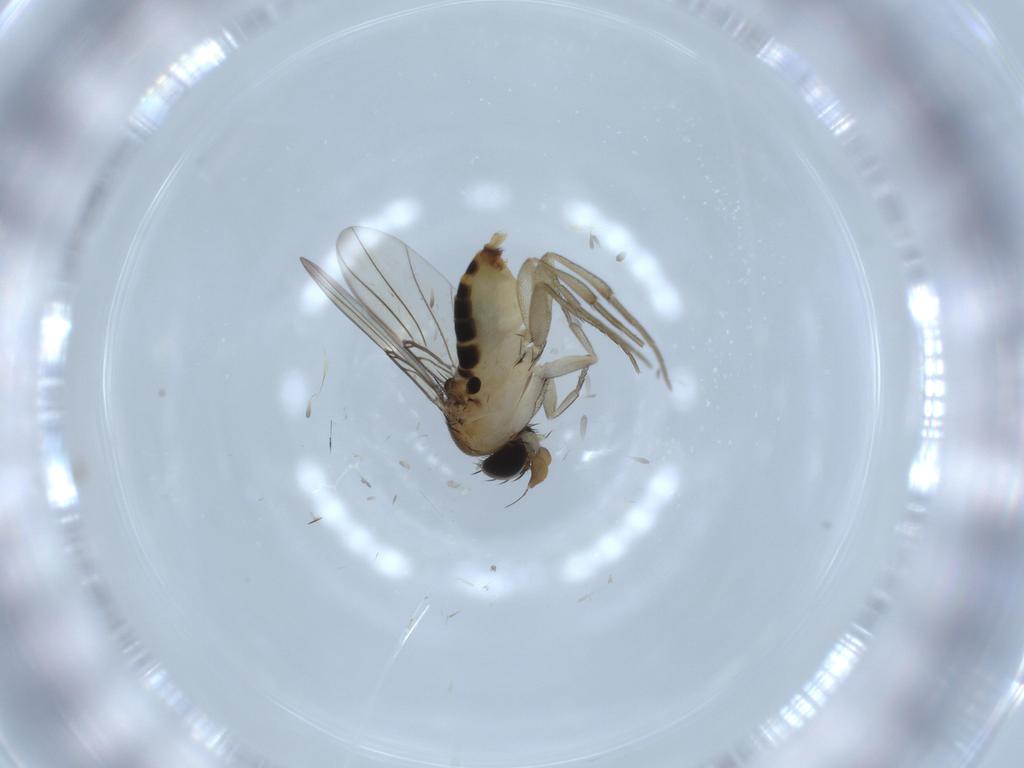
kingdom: Animalia
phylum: Arthropoda
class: Insecta
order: Diptera
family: Phoridae
